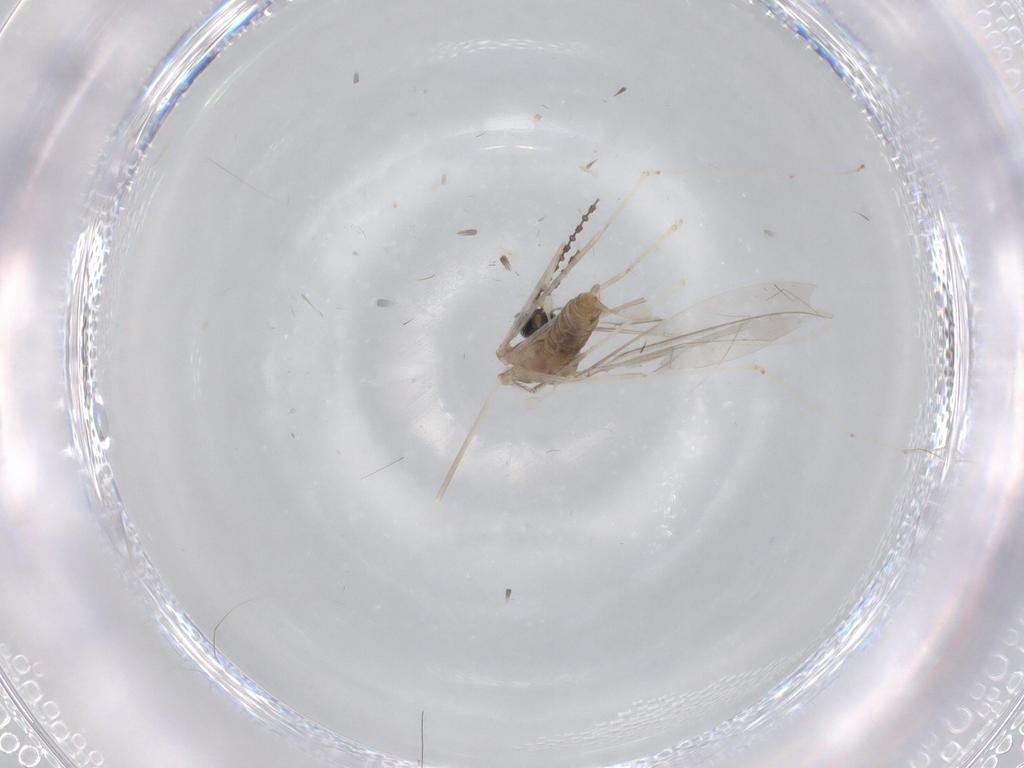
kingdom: Animalia
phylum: Arthropoda
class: Insecta
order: Diptera
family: Cecidomyiidae
